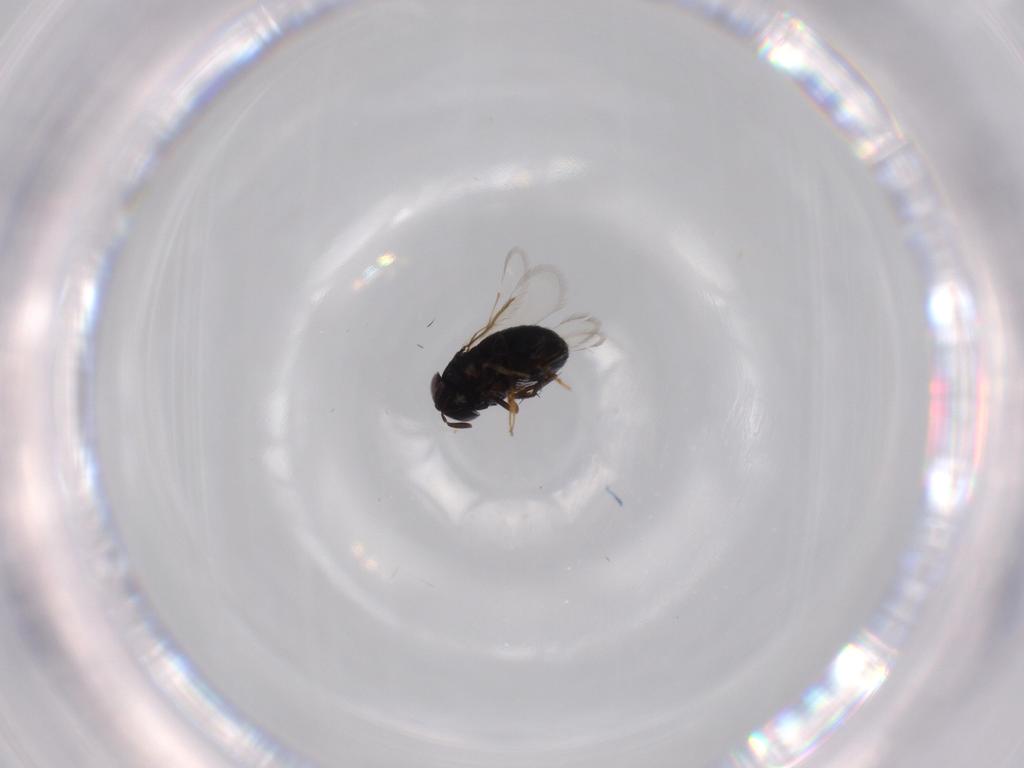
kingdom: Animalia
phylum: Arthropoda
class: Insecta
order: Hymenoptera
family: Signiphoridae
